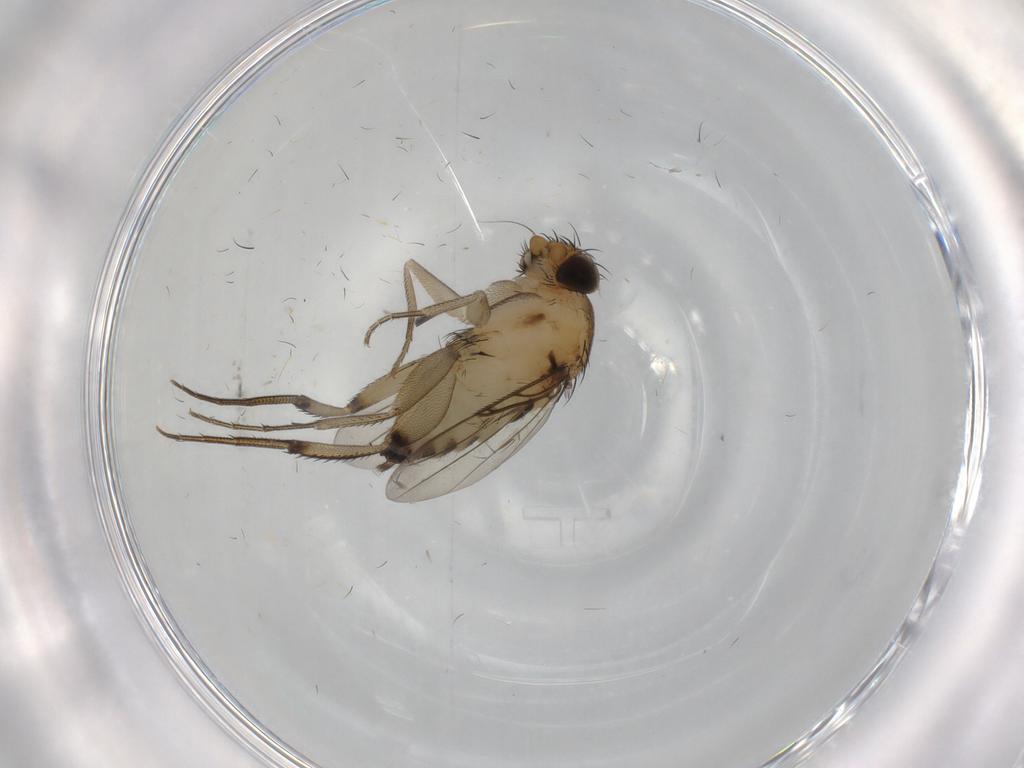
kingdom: Animalia
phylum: Arthropoda
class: Insecta
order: Diptera
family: Phoridae
